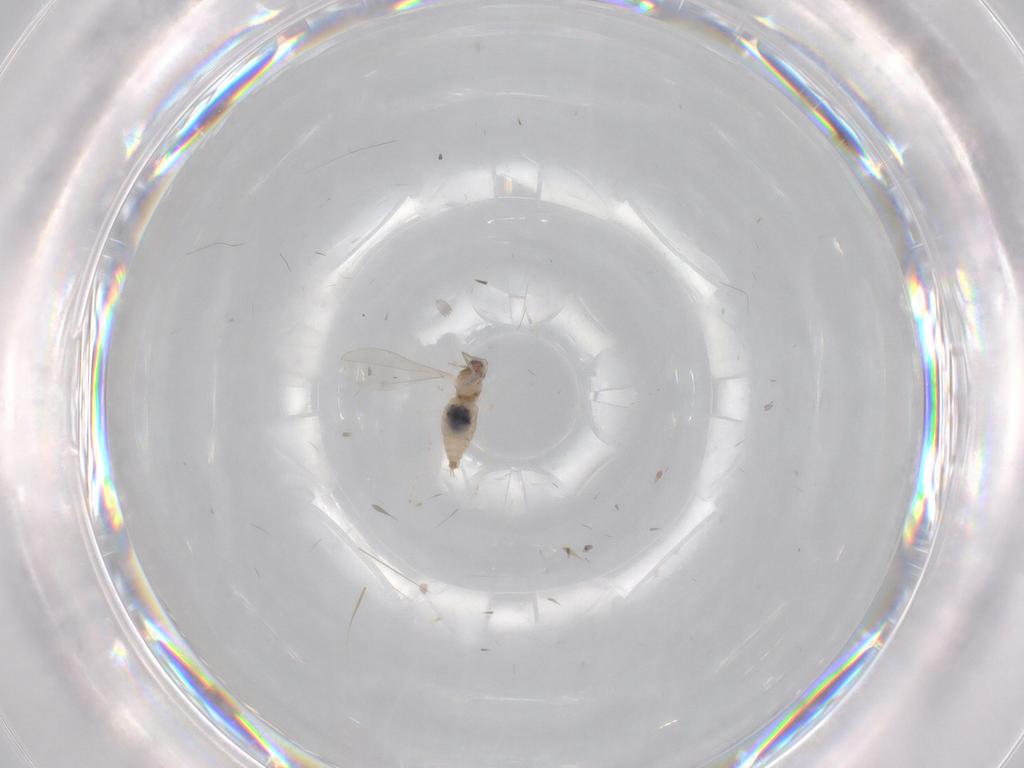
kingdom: Animalia
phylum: Arthropoda
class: Insecta
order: Diptera
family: Cecidomyiidae
